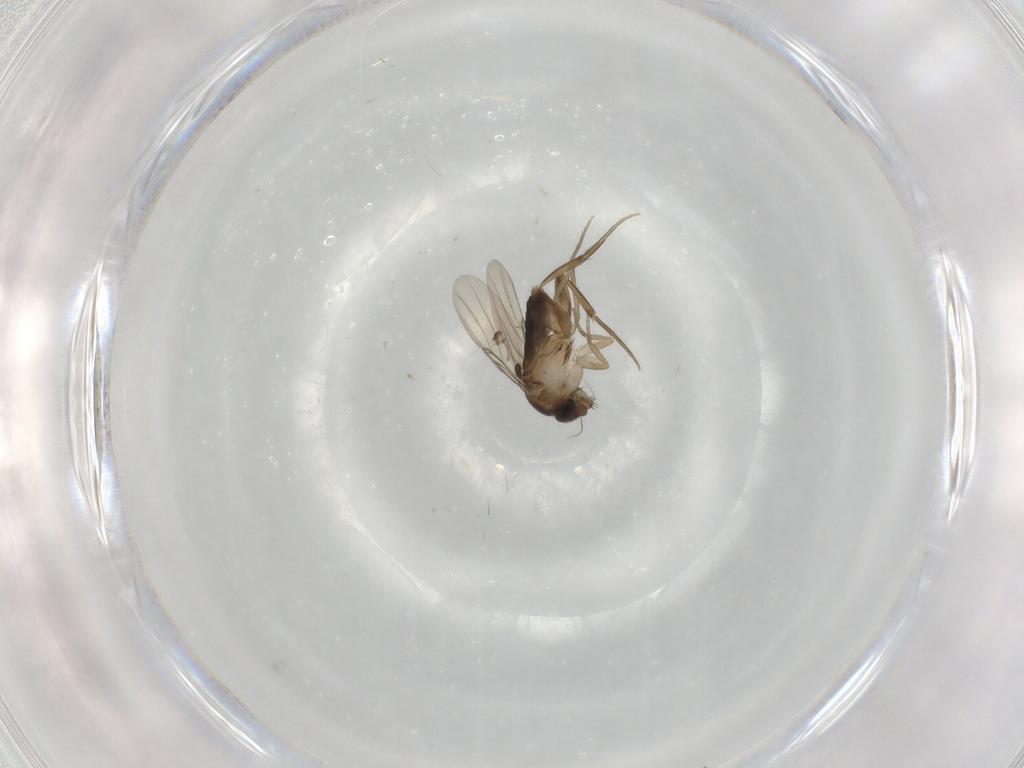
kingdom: Animalia
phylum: Arthropoda
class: Insecta
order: Diptera
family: Phoridae
